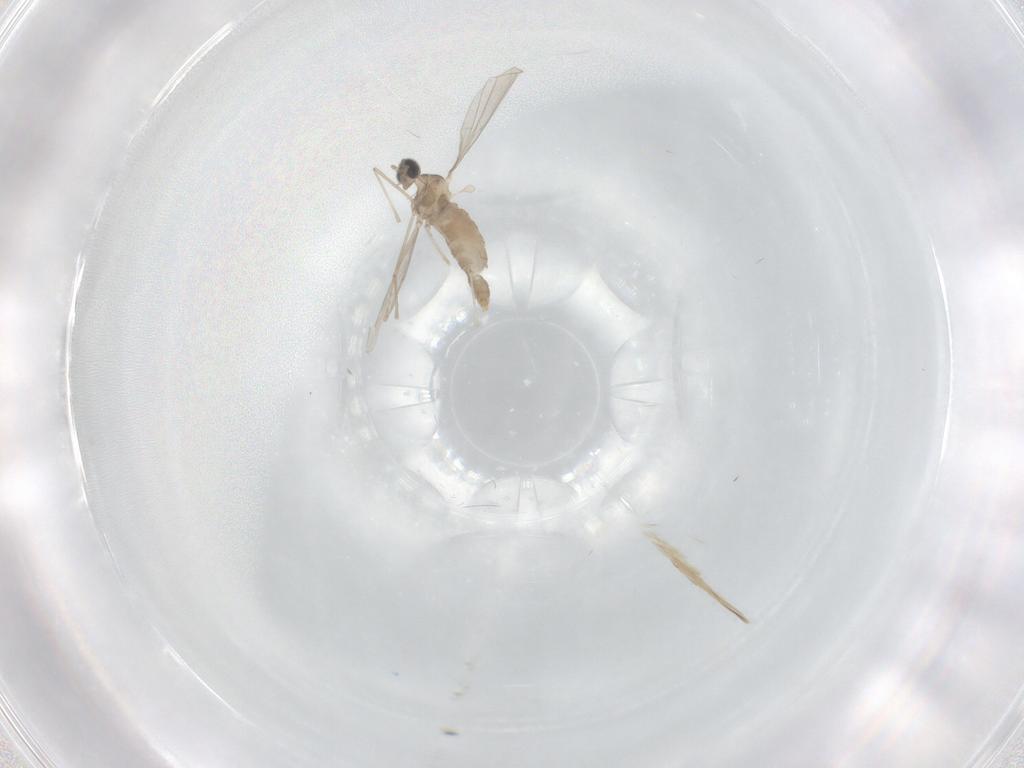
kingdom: Animalia
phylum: Arthropoda
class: Insecta
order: Diptera
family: Cecidomyiidae
